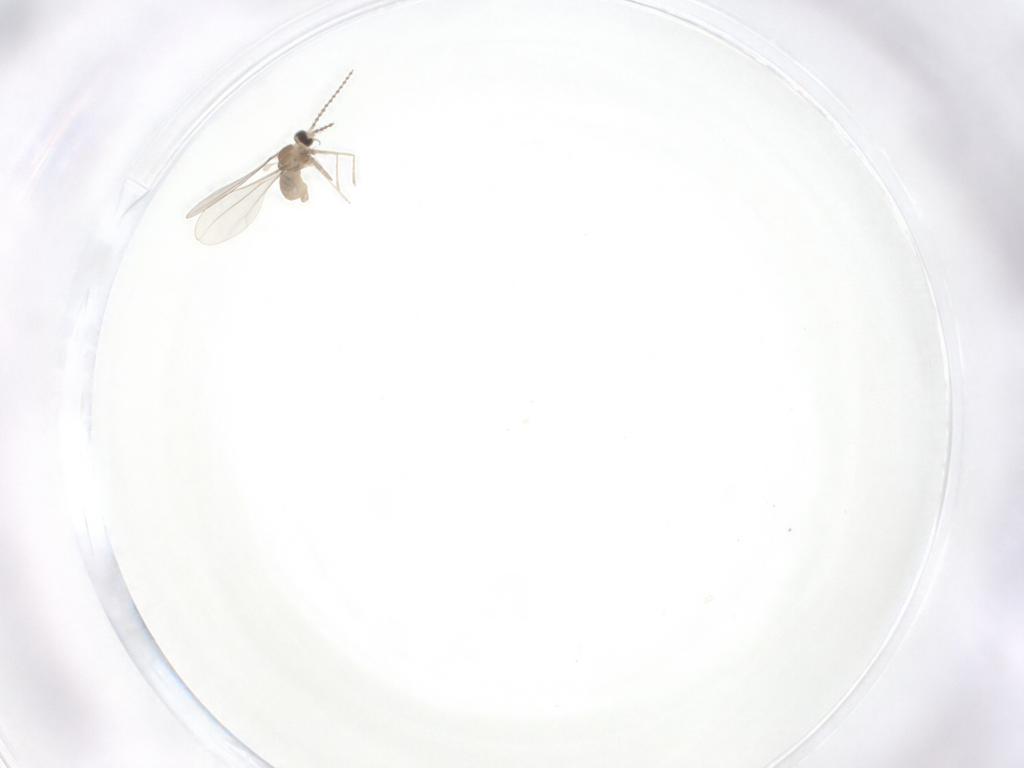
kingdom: Animalia
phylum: Arthropoda
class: Insecta
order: Diptera
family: Cecidomyiidae
